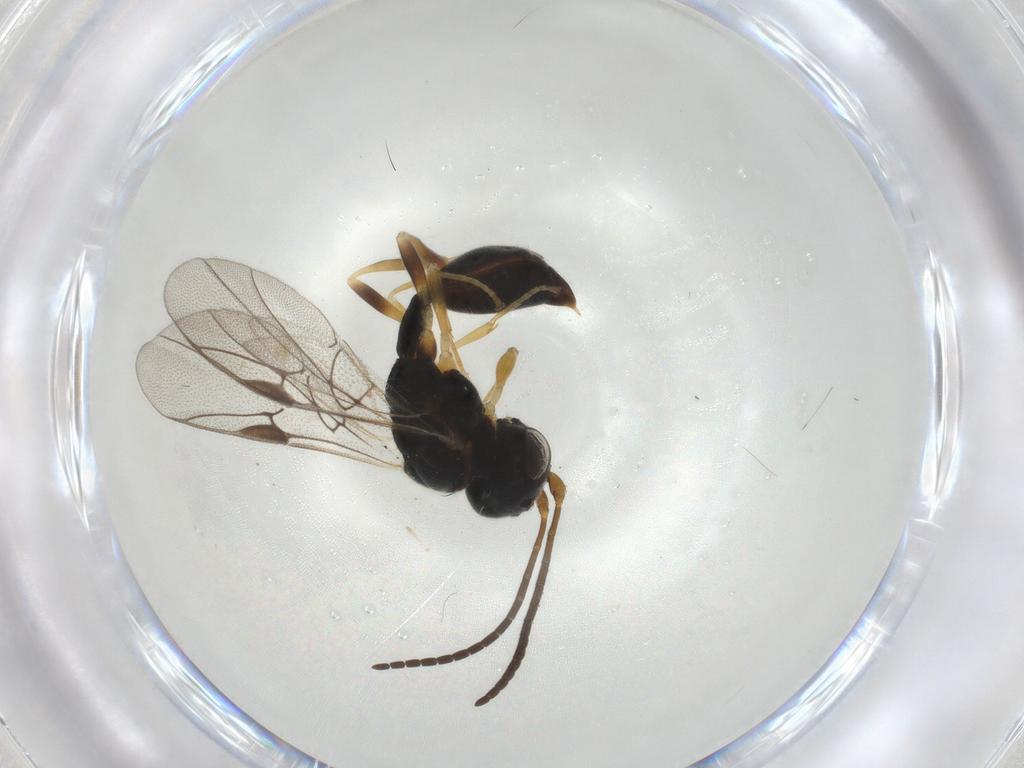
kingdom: Animalia
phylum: Arthropoda
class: Insecta
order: Hymenoptera
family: Heloridae
